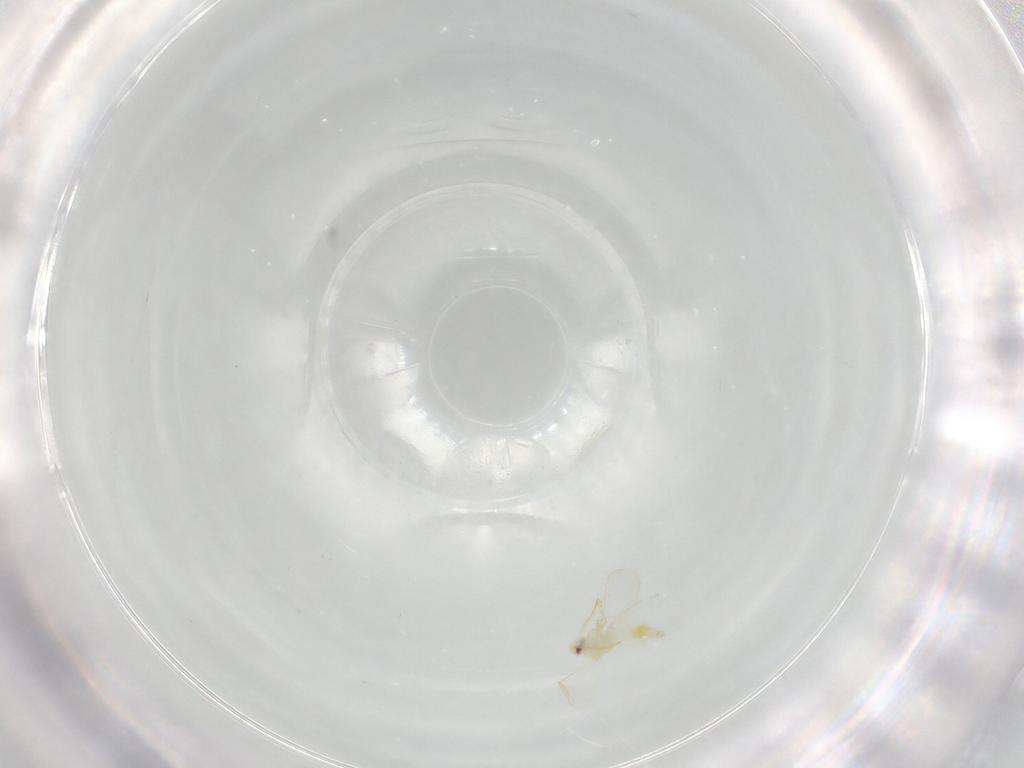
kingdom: Animalia
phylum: Arthropoda
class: Insecta
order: Hemiptera
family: Aleyrodidae
